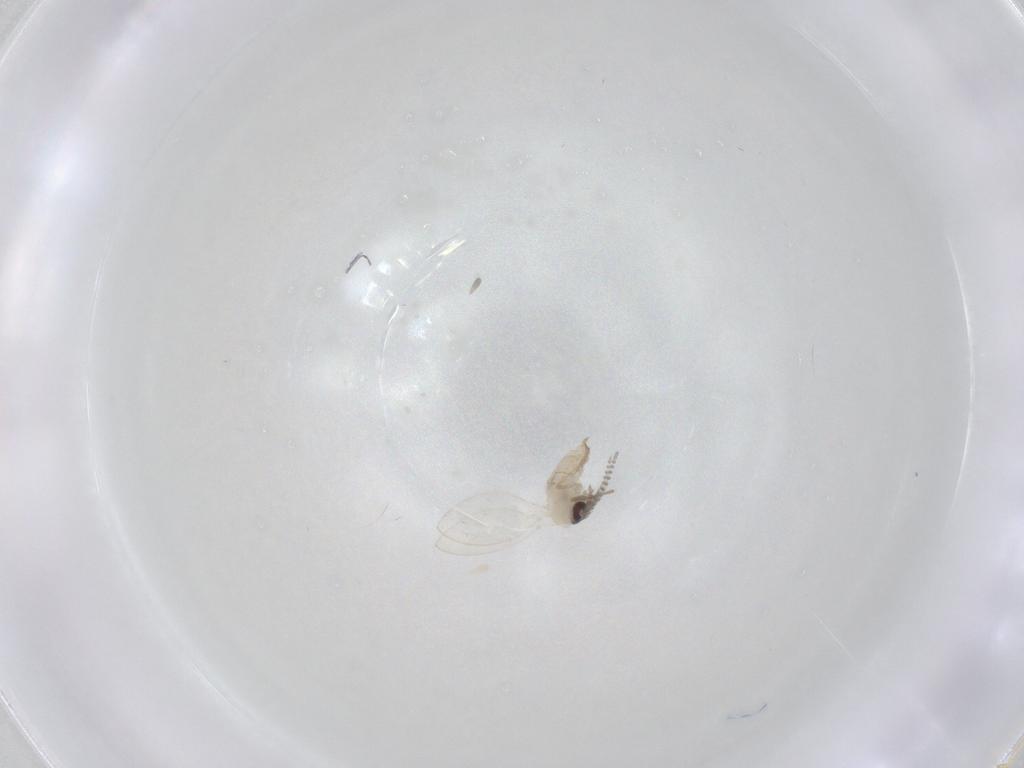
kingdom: Animalia
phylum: Arthropoda
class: Insecta
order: Diptera
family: Psychodidae
